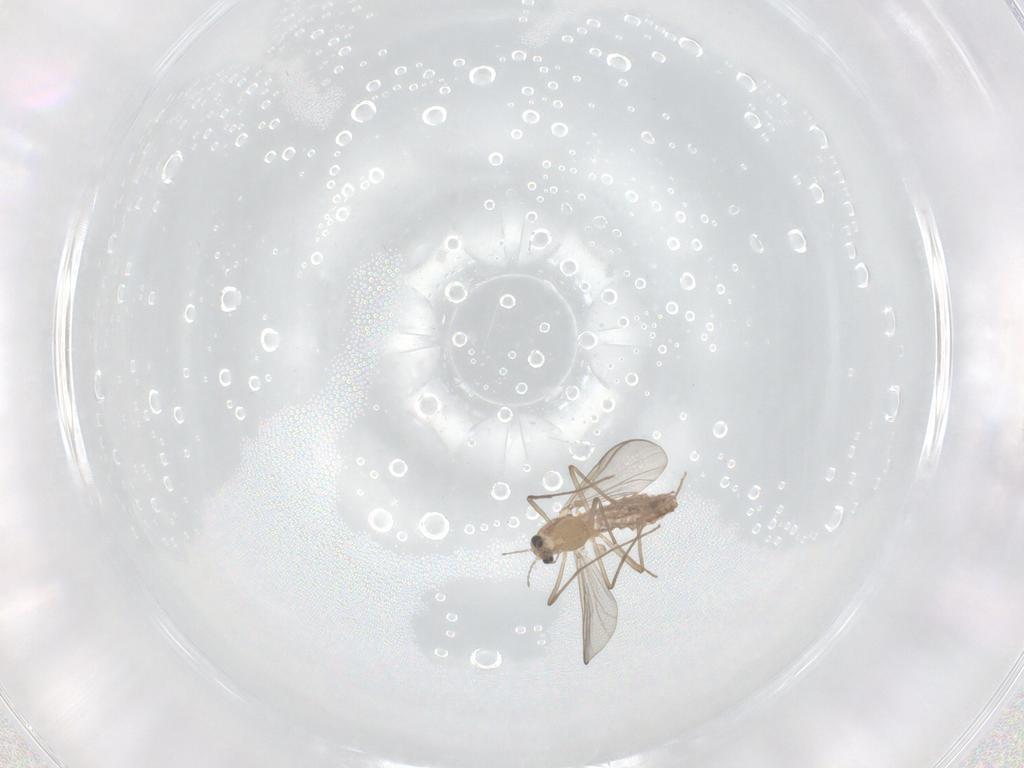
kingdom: Animalia
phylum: Arthropoda
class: Insecta
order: Diptera
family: Chironomidae
